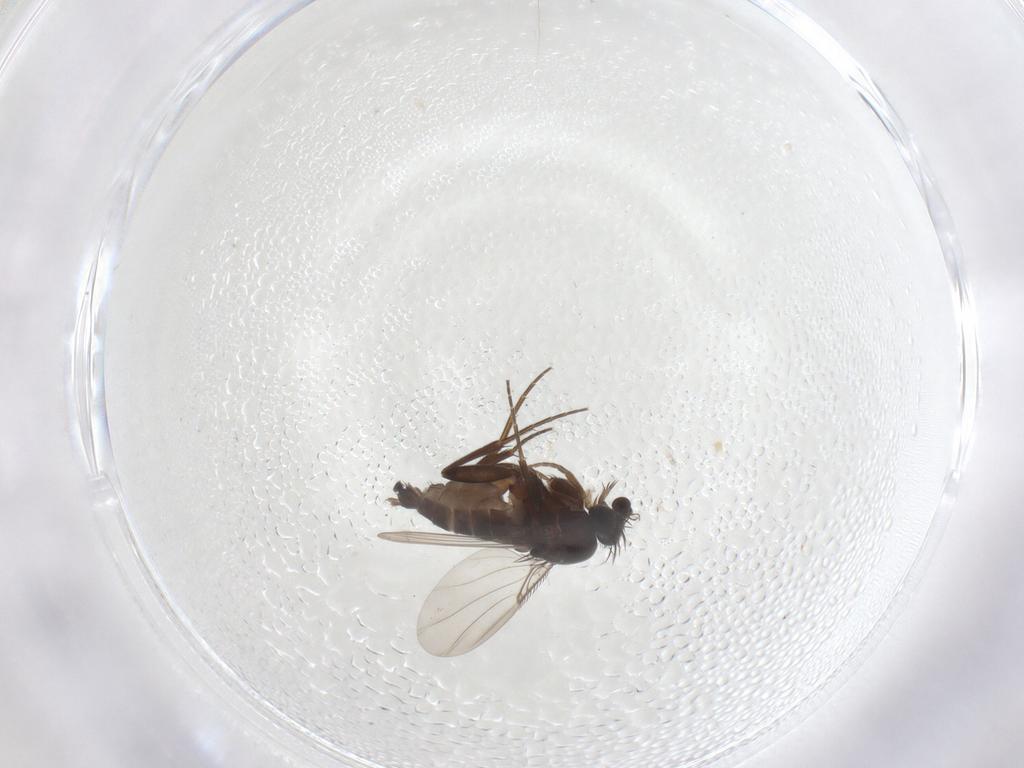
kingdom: Animalia
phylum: Arthropoda
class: Insecta
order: Diptera
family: Phoridae
